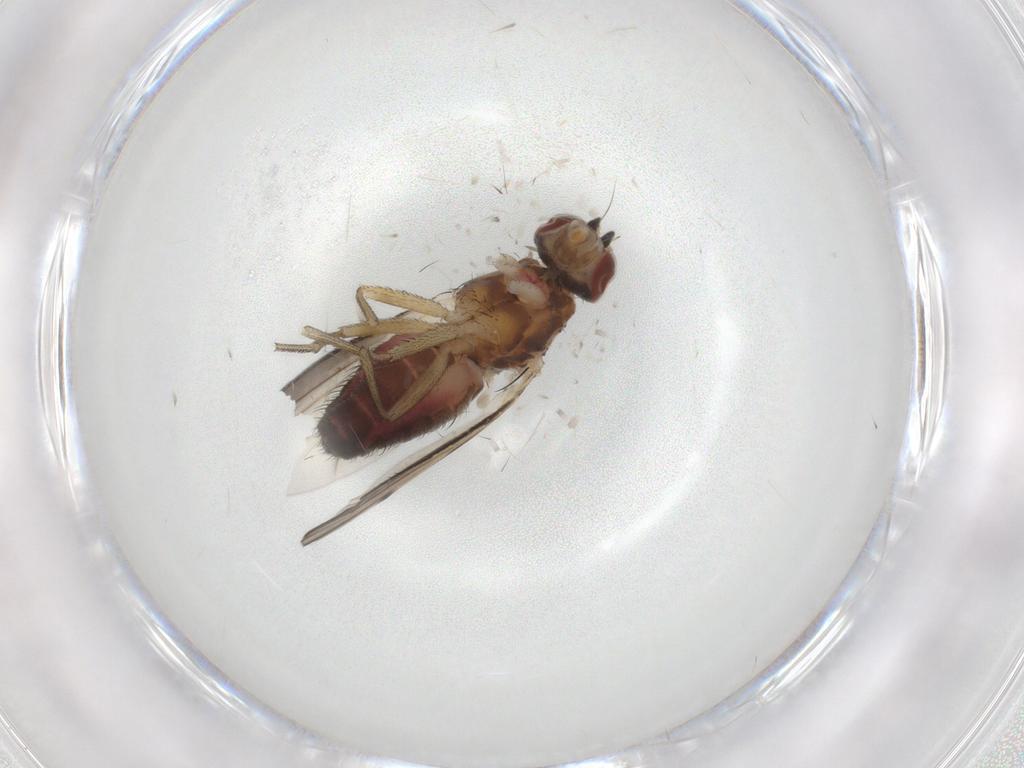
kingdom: Animalia
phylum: Arthropoda
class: Insecta
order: Diptera
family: Heleomyzidae
